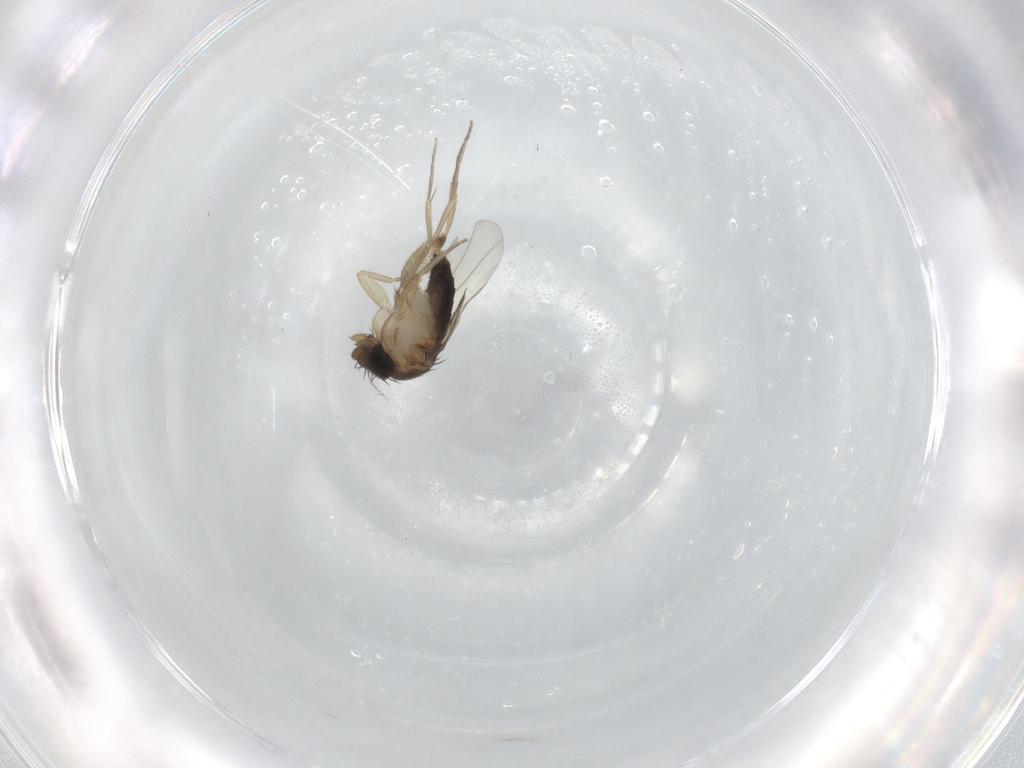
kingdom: Animalia
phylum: Arthropoda
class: Insecta
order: Diptera
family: Phoridae
